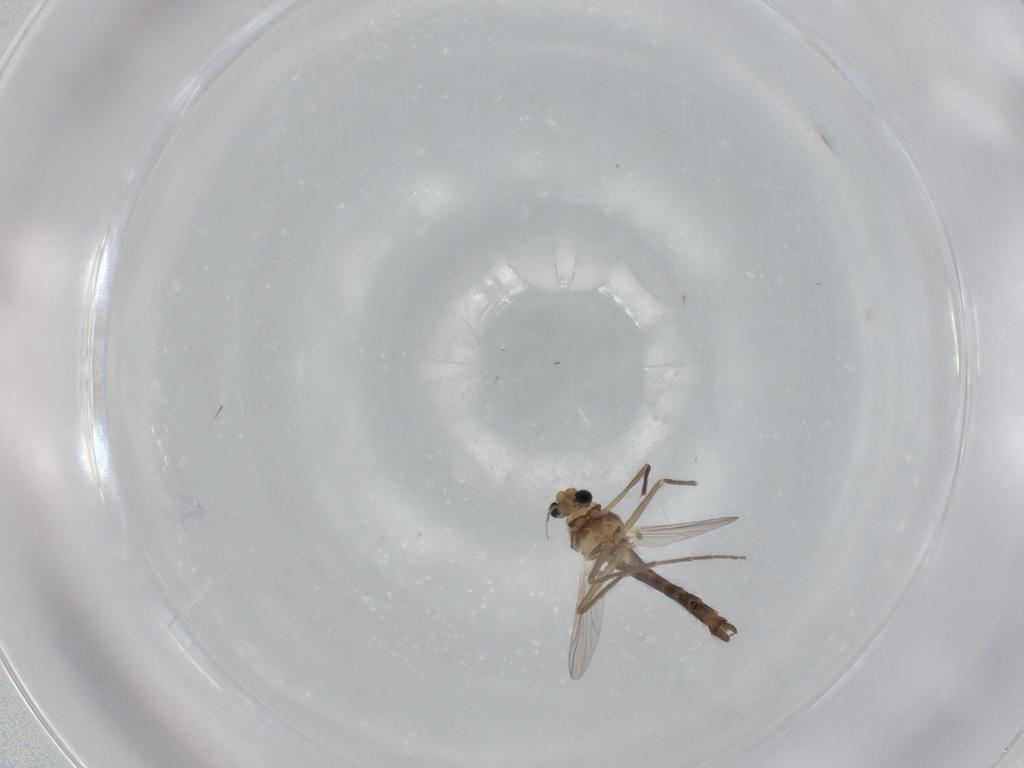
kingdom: Animalia
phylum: Arthropoda
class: Insecta
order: Diptera
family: Chironomidae
